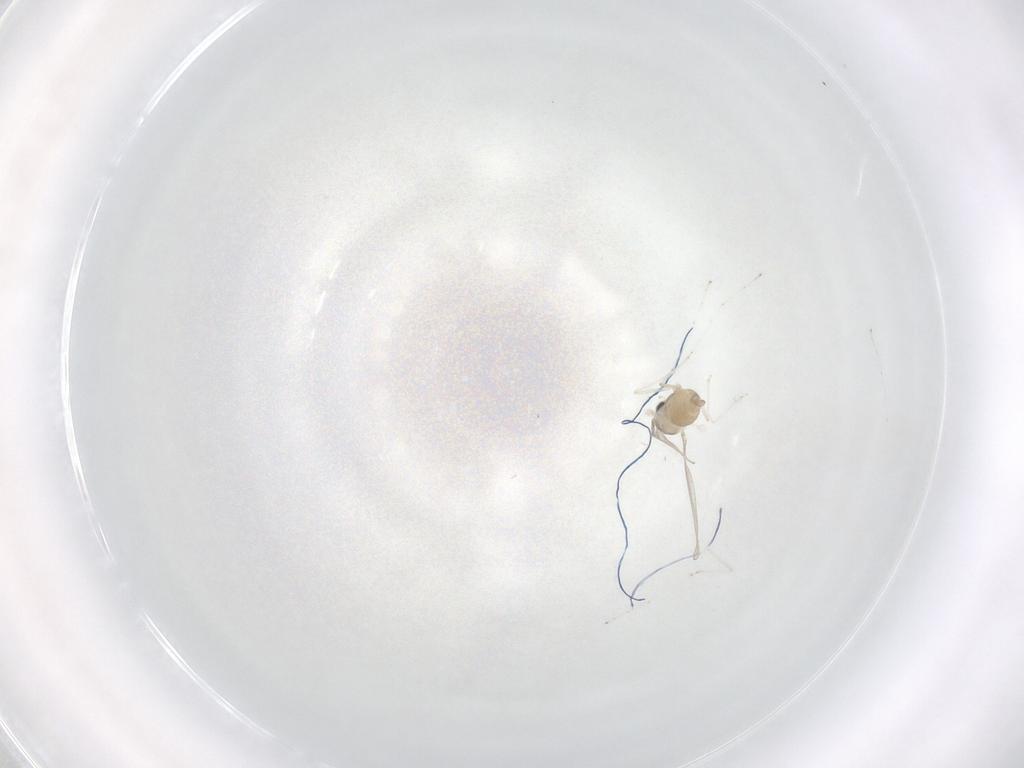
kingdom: Animalia
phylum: Arthropoda
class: Insecta
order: Diptera
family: Cecidomyiidae
